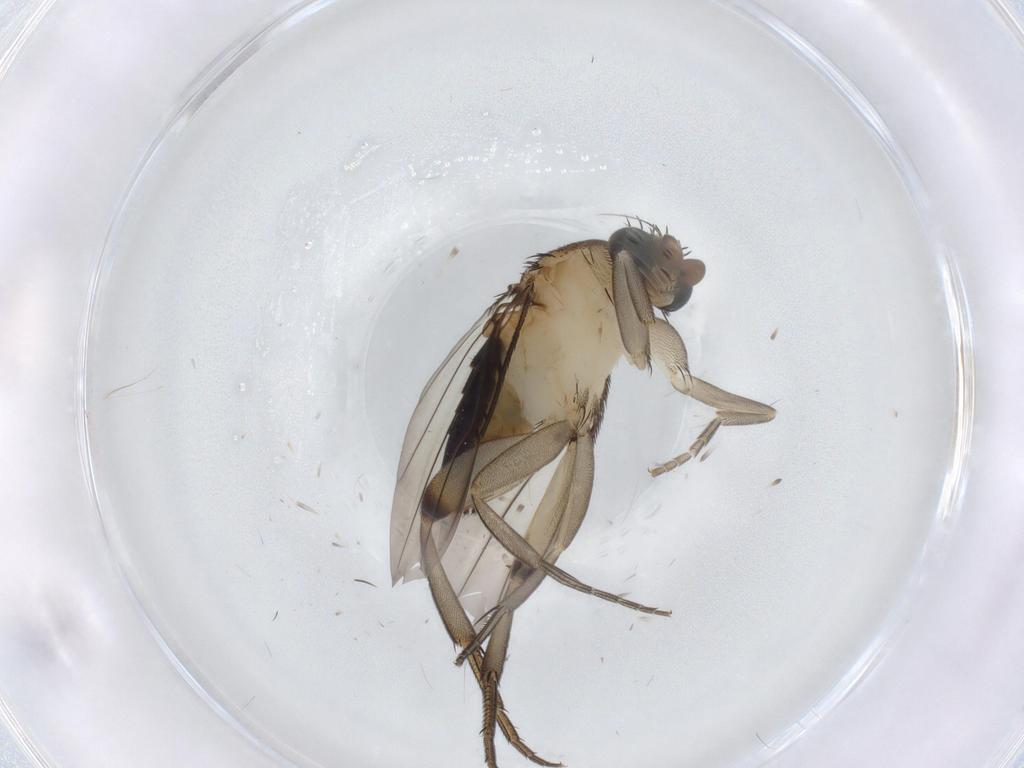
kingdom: Animalia
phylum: Arthropoda
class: Insecta
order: Diptera
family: Phoridae
